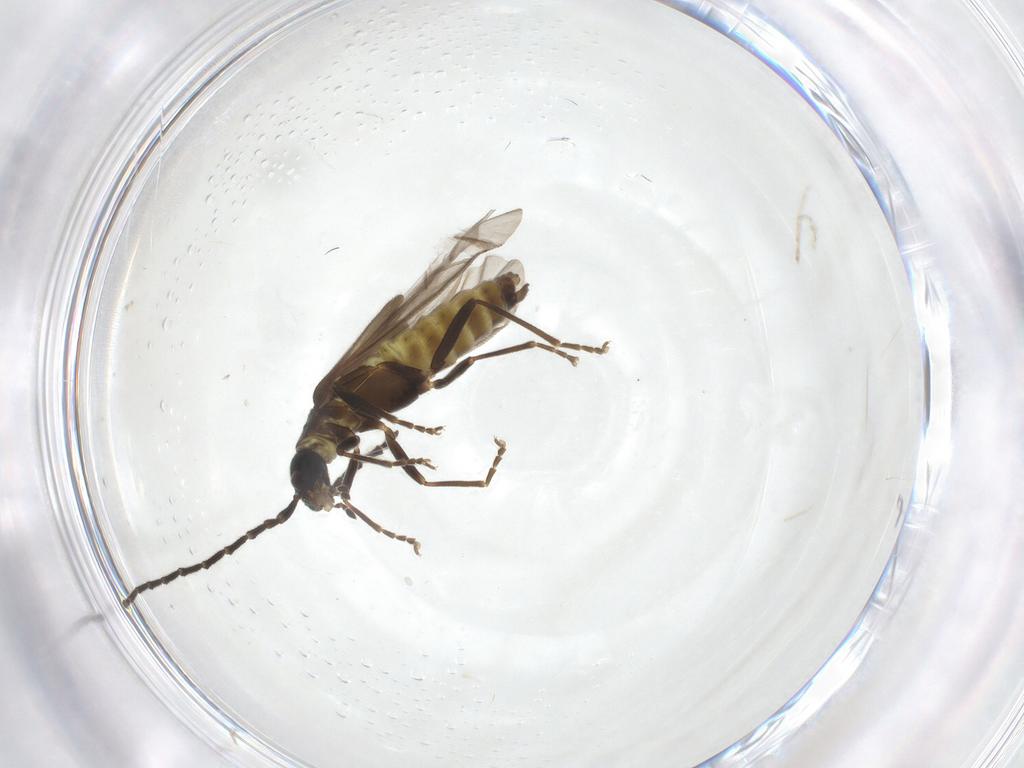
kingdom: Animalia
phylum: Arthropoda
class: Insecta
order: Coleoptera
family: Cantharidae
